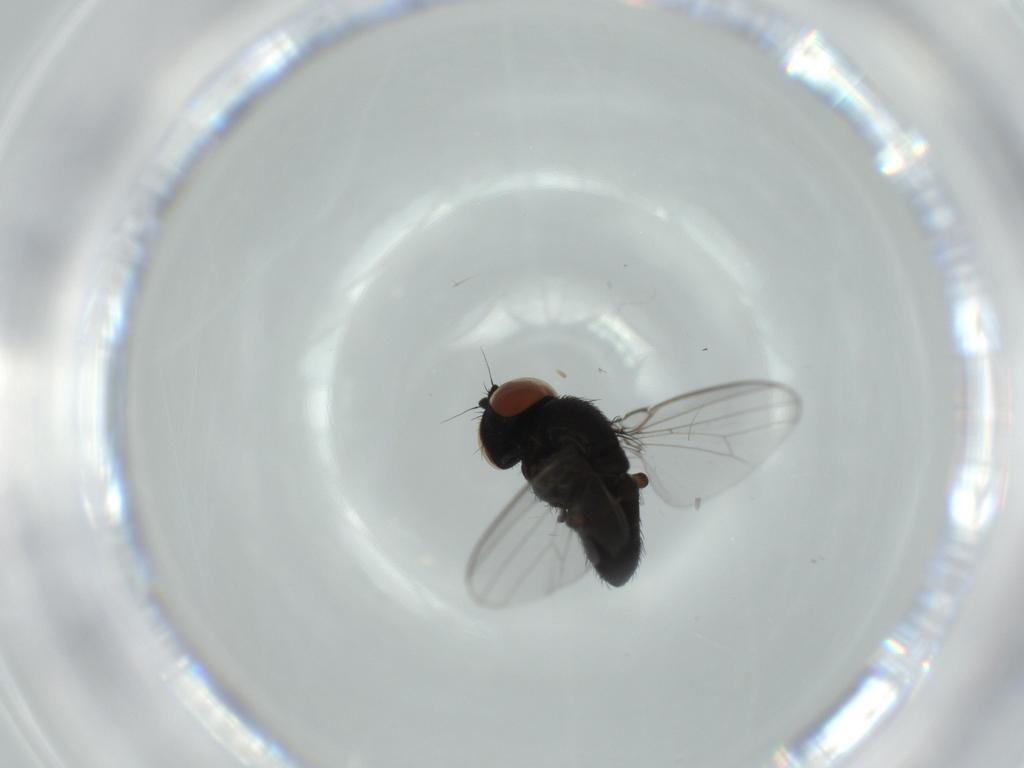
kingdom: Animalia
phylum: Arthropoda
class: Insecta
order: Diptera
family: Milichiidae
